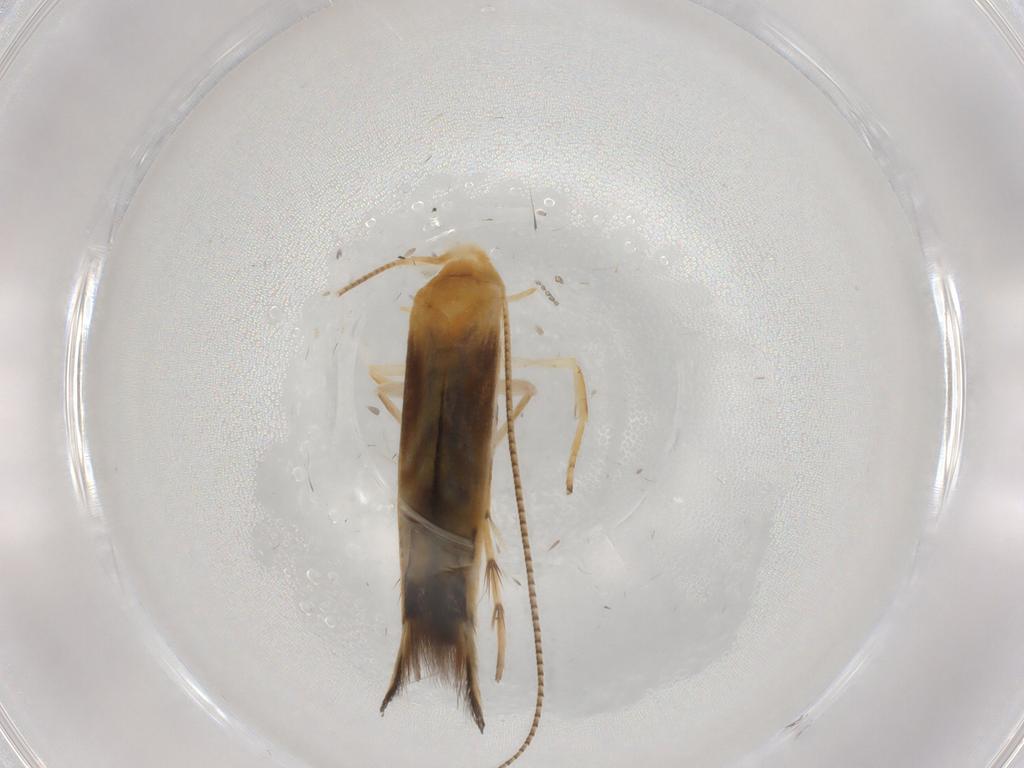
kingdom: Animalia
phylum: Arthropoda
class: Insecta
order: Lepidoptera
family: Lyonetiidae
